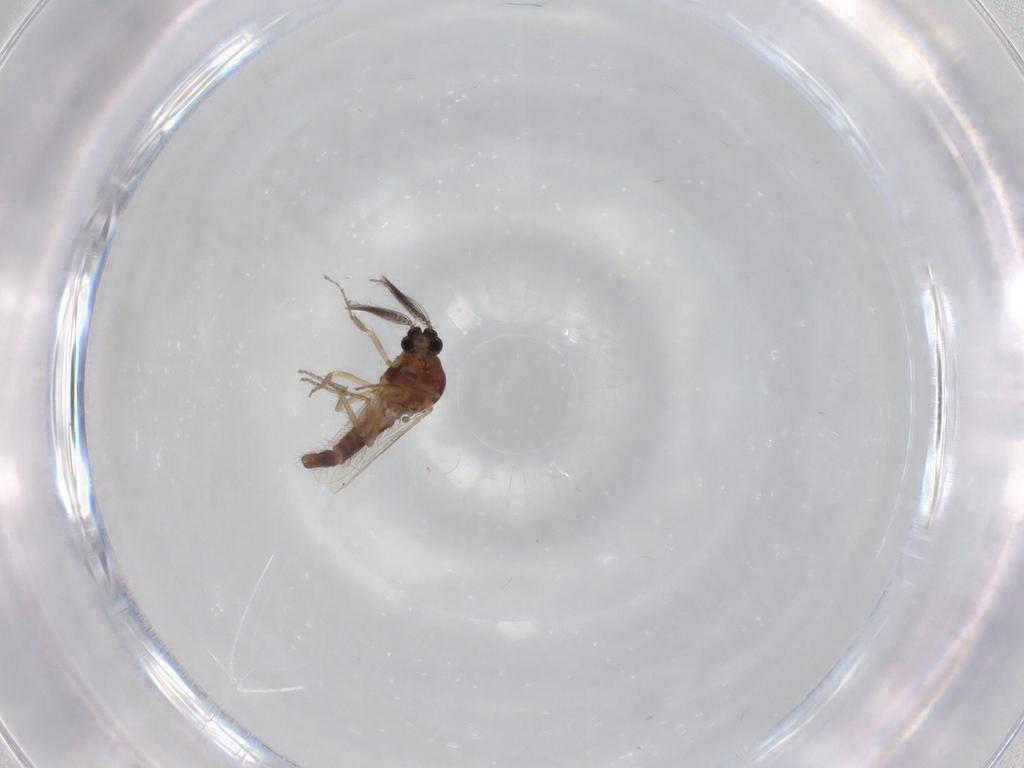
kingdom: Animalia
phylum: Arthropoda
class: Insecta
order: Diptera
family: Ceratopogonidae
